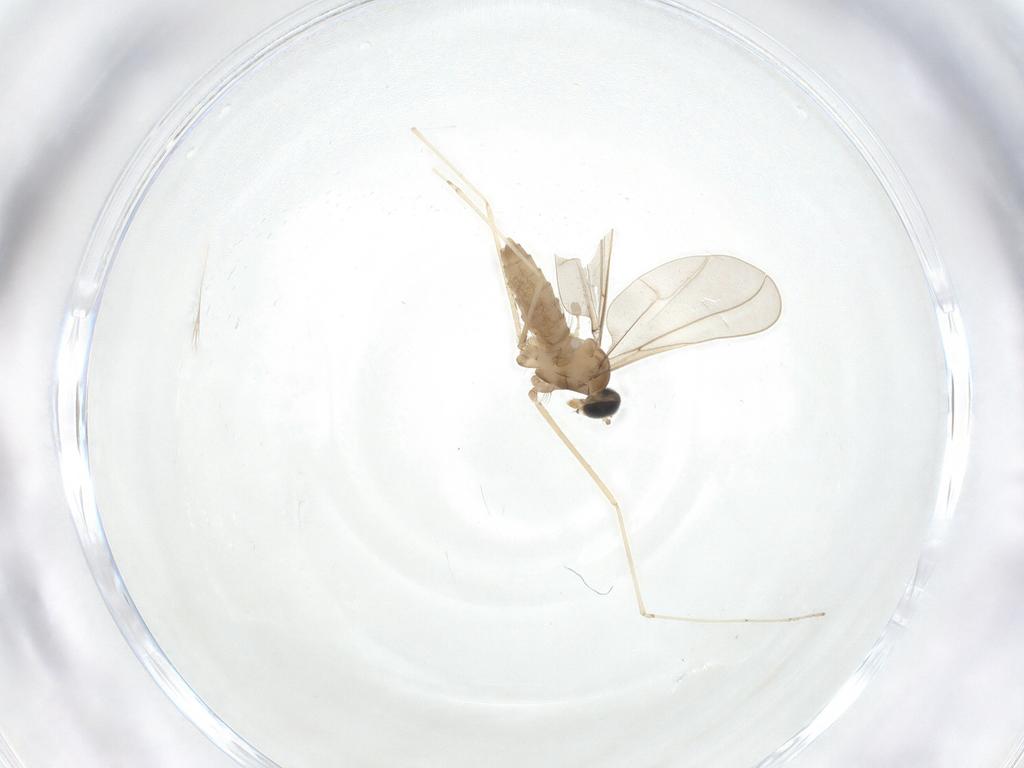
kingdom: Animalia
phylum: Arthropoda
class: Insecta
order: Diptera
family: Cecidomyiidae
